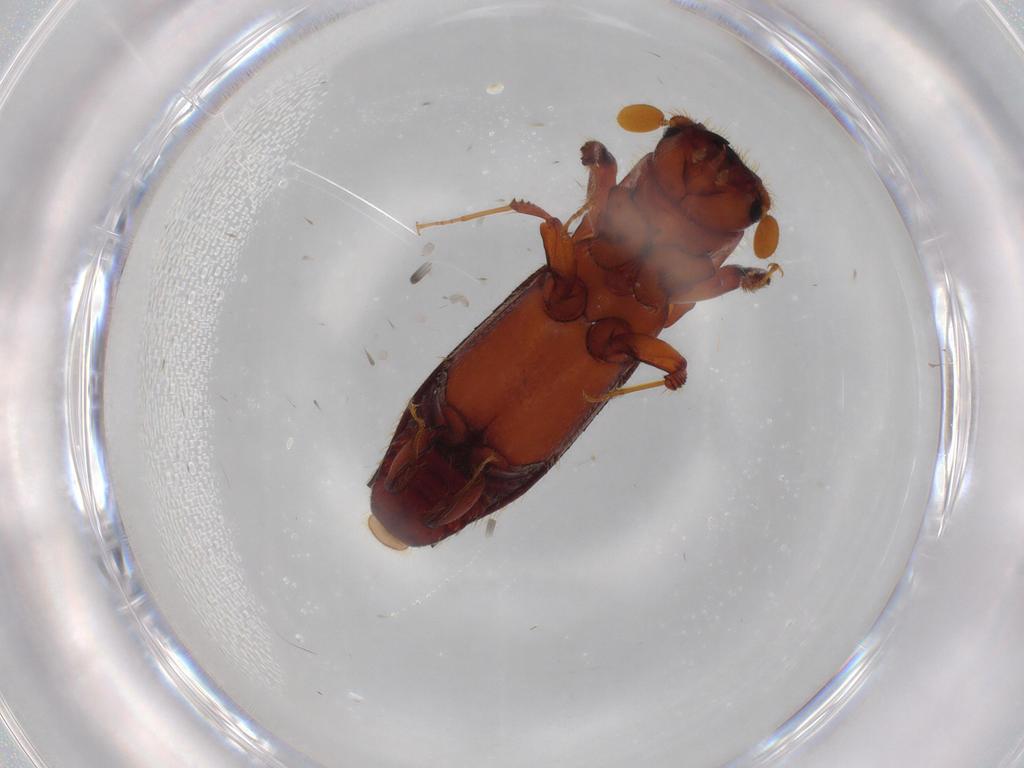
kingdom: Animalia
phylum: Arthropoda
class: Insecta
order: Coleoptera
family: Curculionidae
